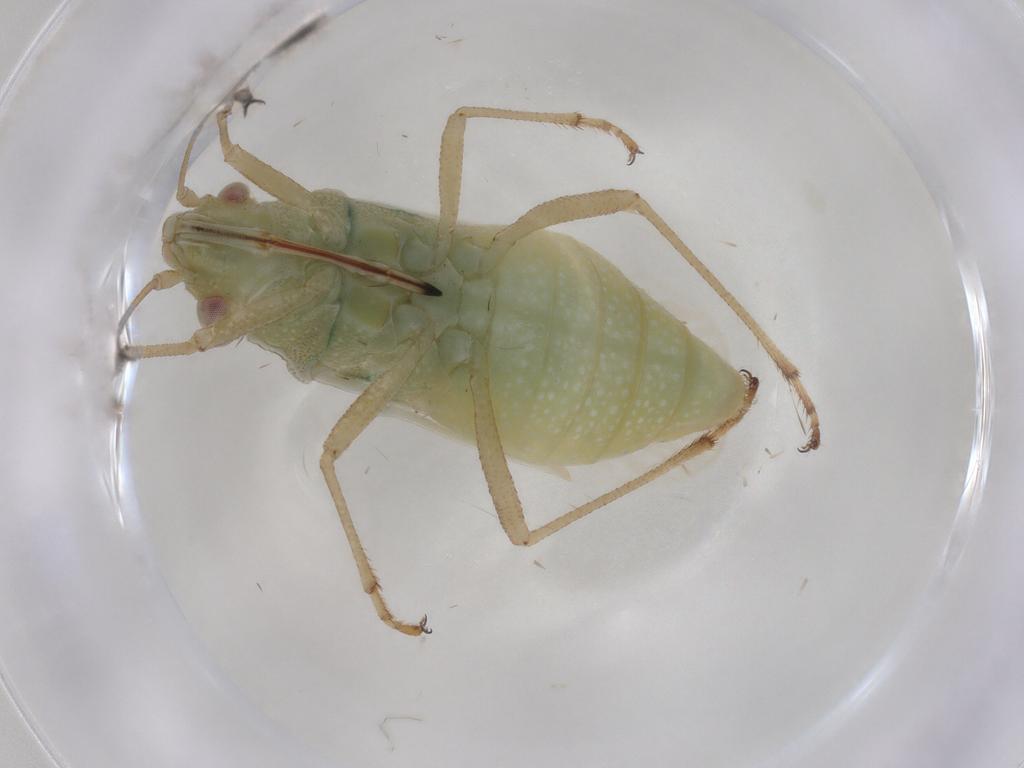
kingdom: Animalia
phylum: Arthropoda
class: Insecta
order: Hemiptera
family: Rhopalidae
